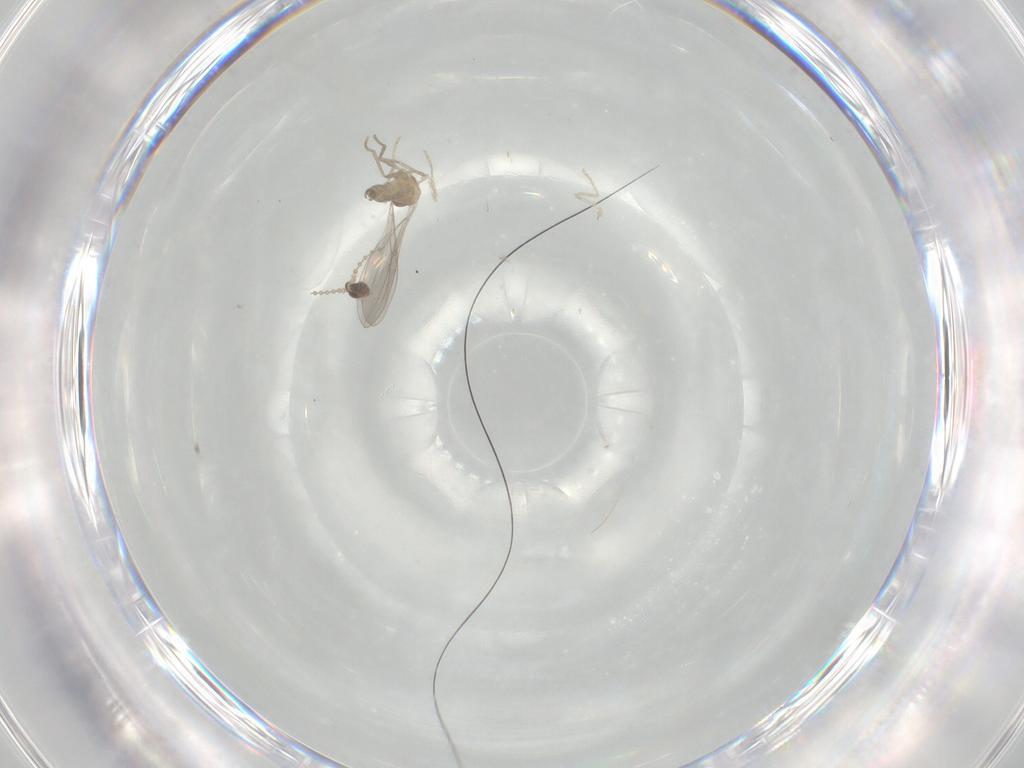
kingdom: Animalia
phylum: Arthropoda
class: Insecta
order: Diptera
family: Cecidomyiidae
